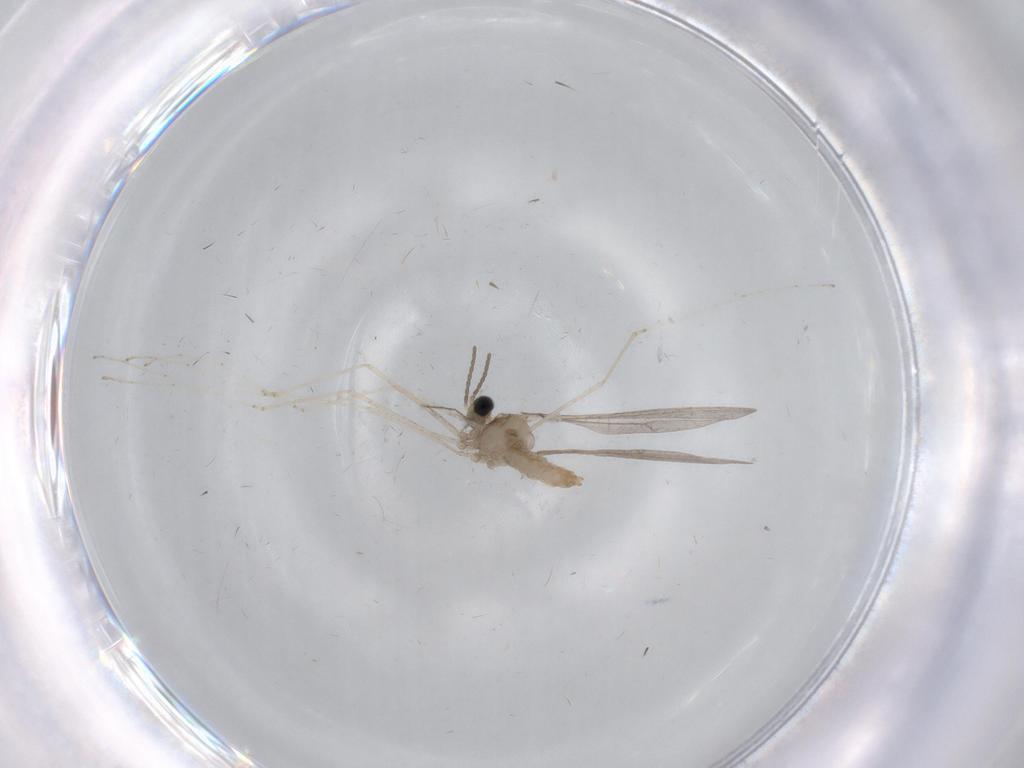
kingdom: Animalia
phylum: Arthropoda
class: Insecta
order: Diptera
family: Cecidomyiidae
